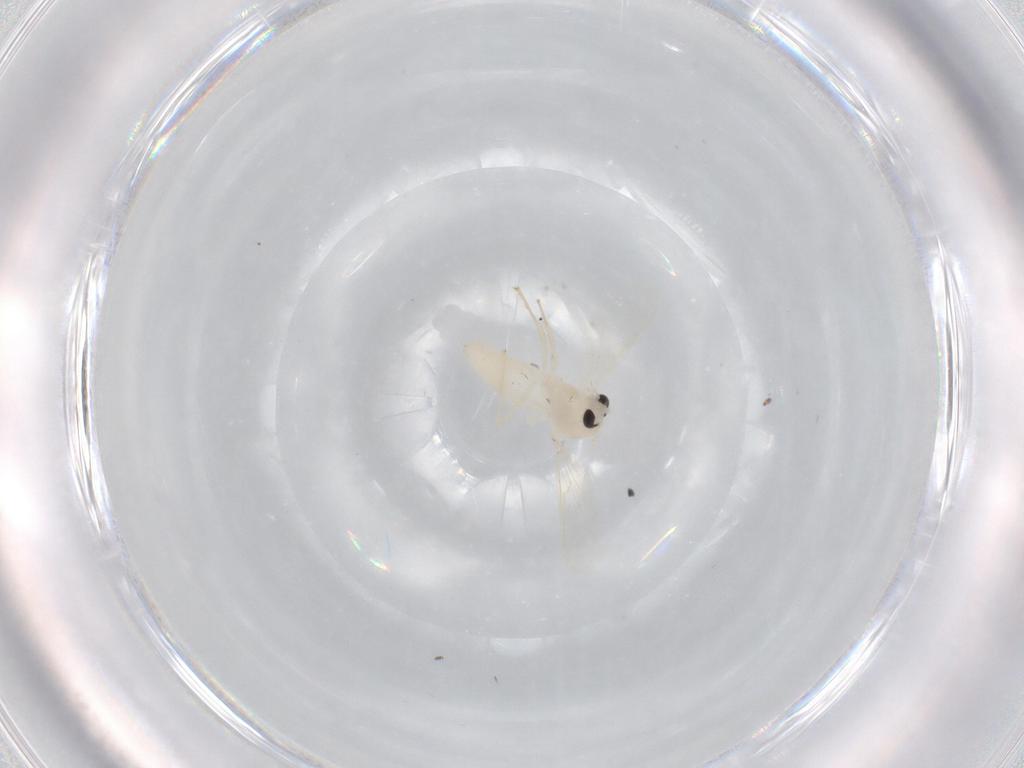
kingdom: Animalia
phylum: Arthropoda
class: Insecta
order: Diptera
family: Chironomidae
